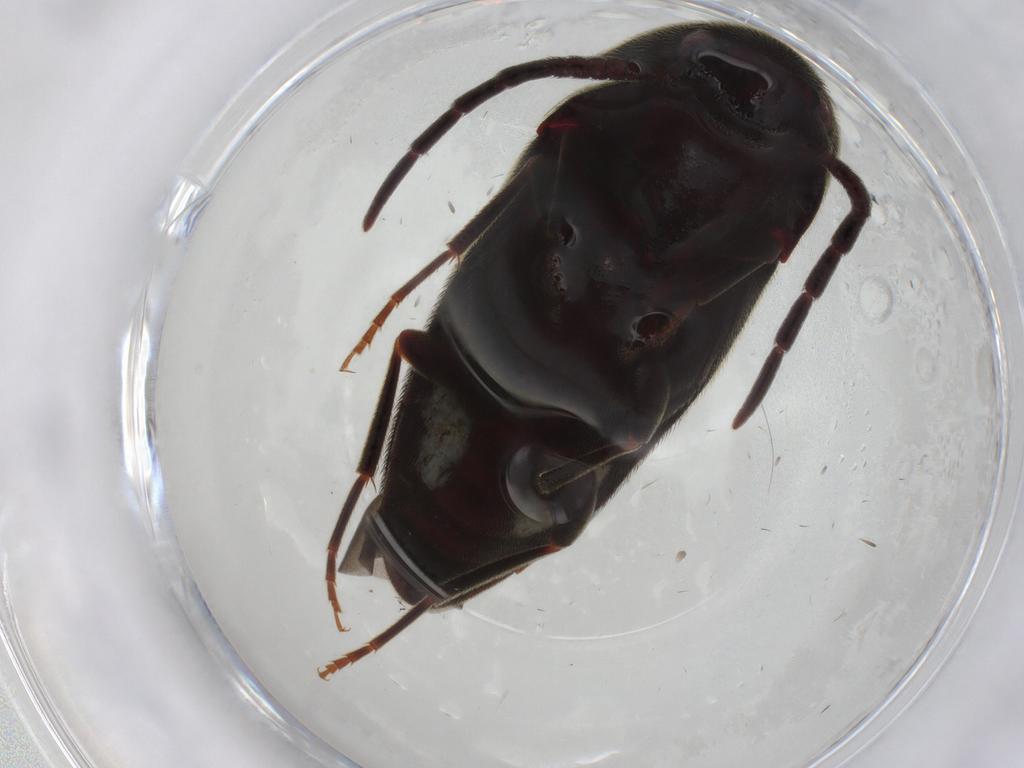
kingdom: Animalia
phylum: Arthropoda
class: Insecta
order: Coleoptera
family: Eucnemidae
